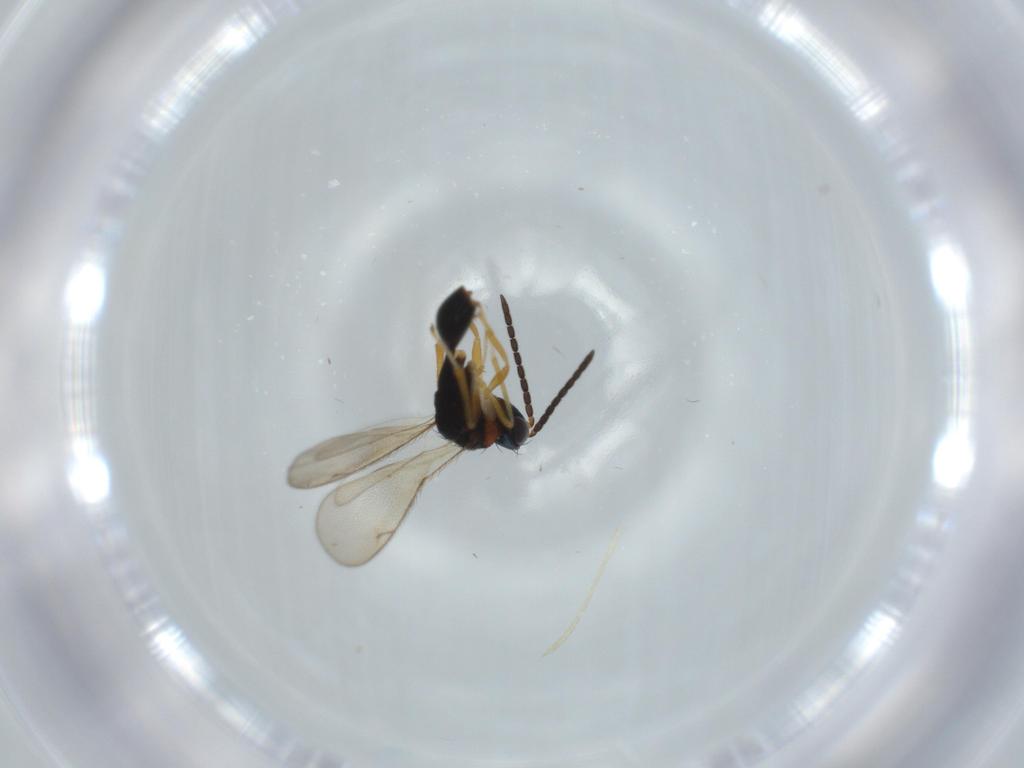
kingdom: Animalia
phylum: Arthropoda
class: Insecta
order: Hymenoptera
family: Diparidae
